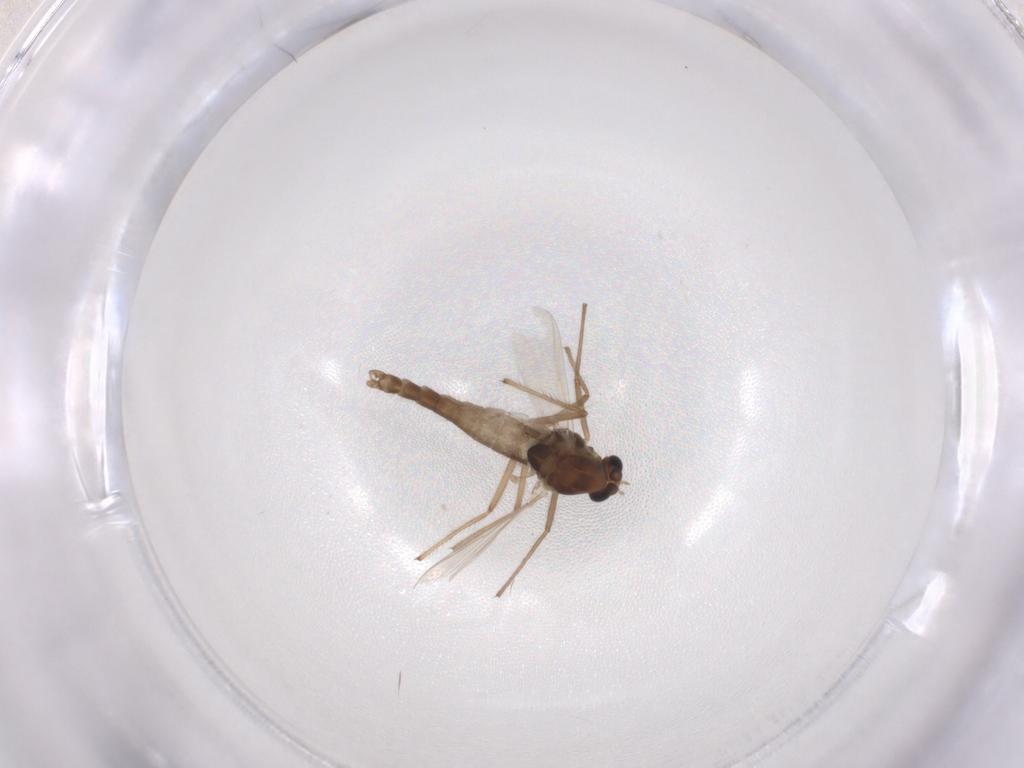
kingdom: Animalia
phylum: Arthropoda
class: Insecta
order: Diptera
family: Chironomidae
